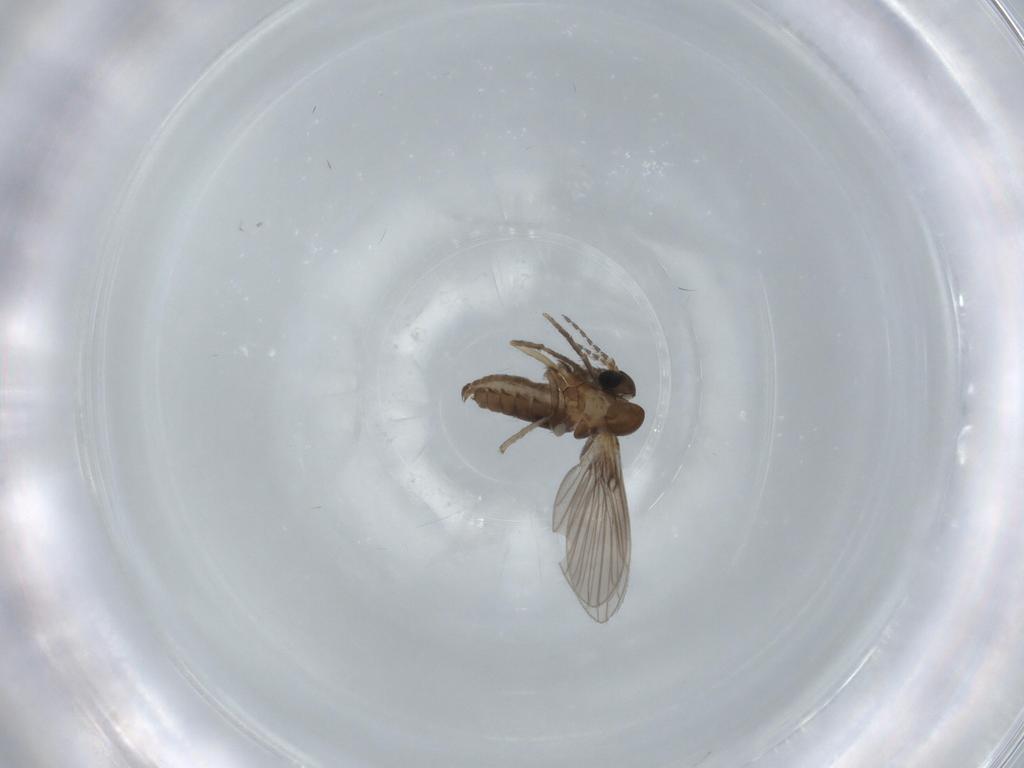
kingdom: Animalia
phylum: Arthropoda
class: Insecta
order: Diptera
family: Psychodidae
